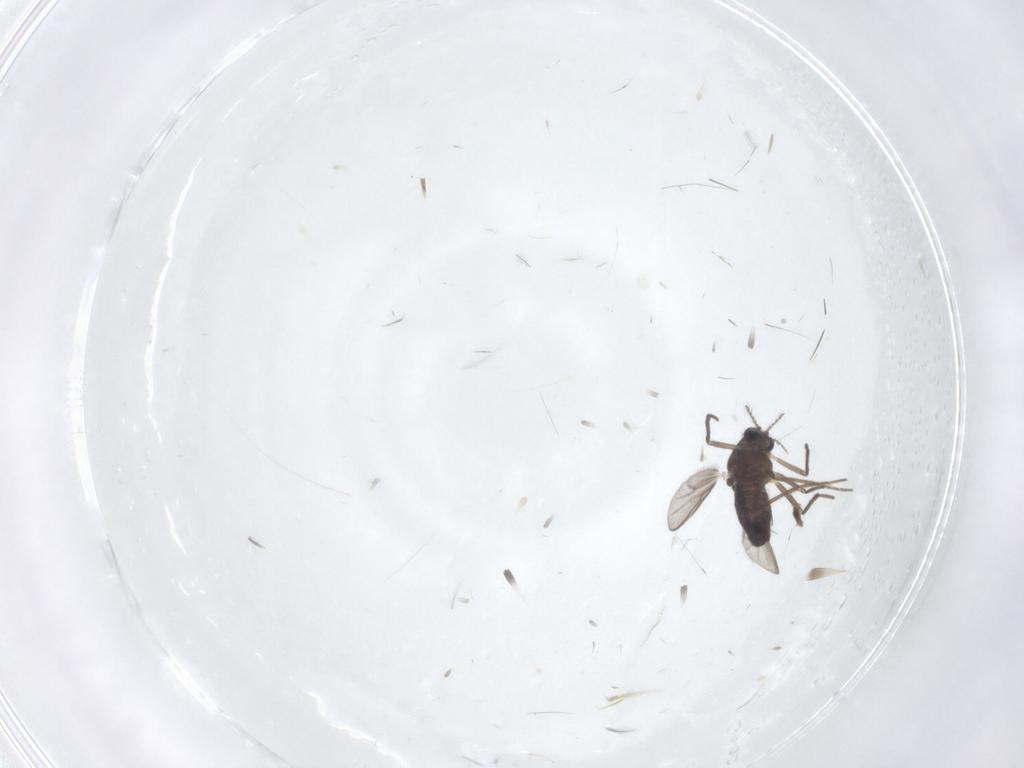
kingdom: Animalia
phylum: Arthropoda
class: Insecta
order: Diptera
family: Chironomidae
